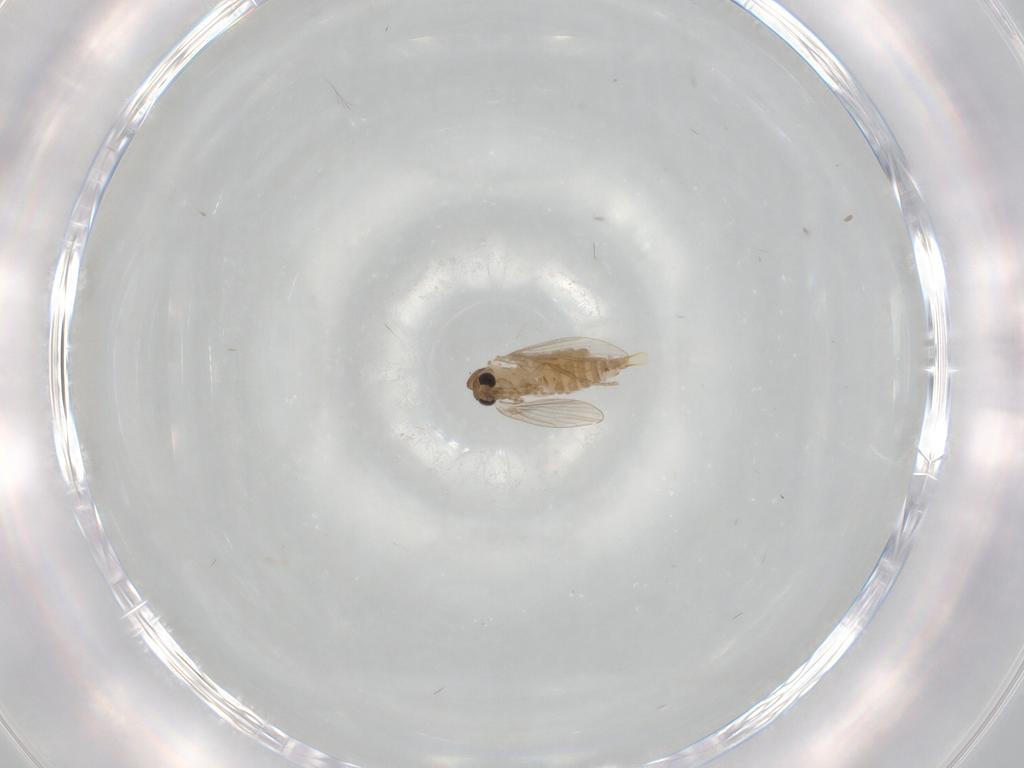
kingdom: Animalia
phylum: Arthropoda
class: Insecta
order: Diptera
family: Psychodidae
